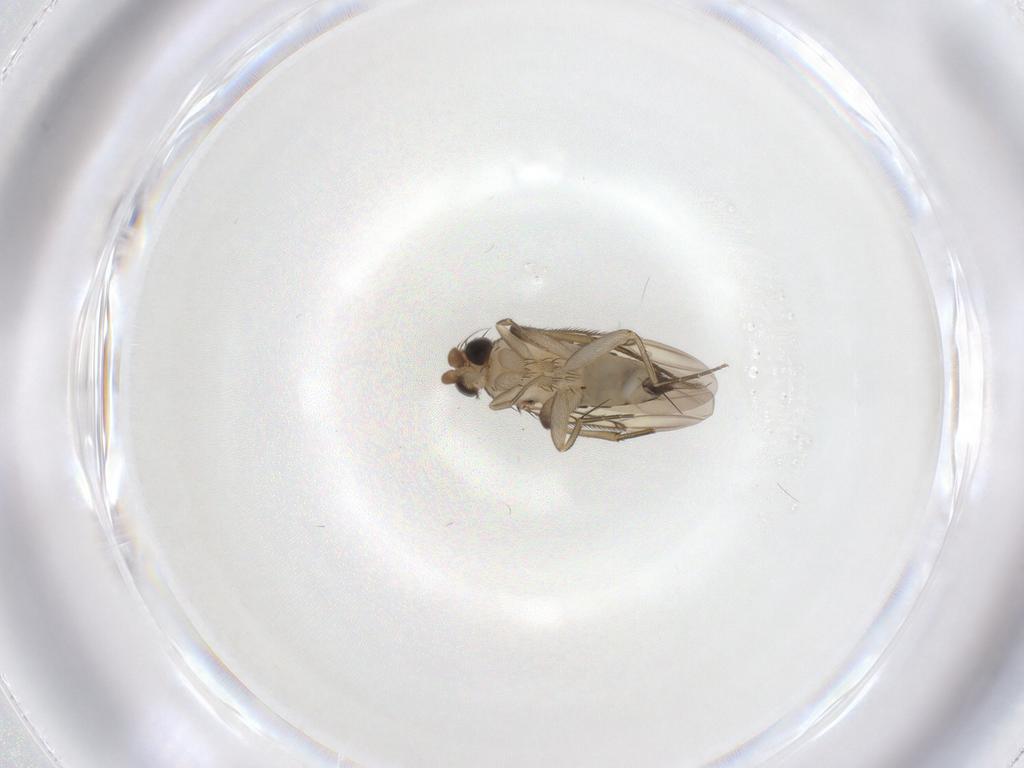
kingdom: Animalia
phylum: Arthropoda
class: Insecta
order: Diptera
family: Phoridae
